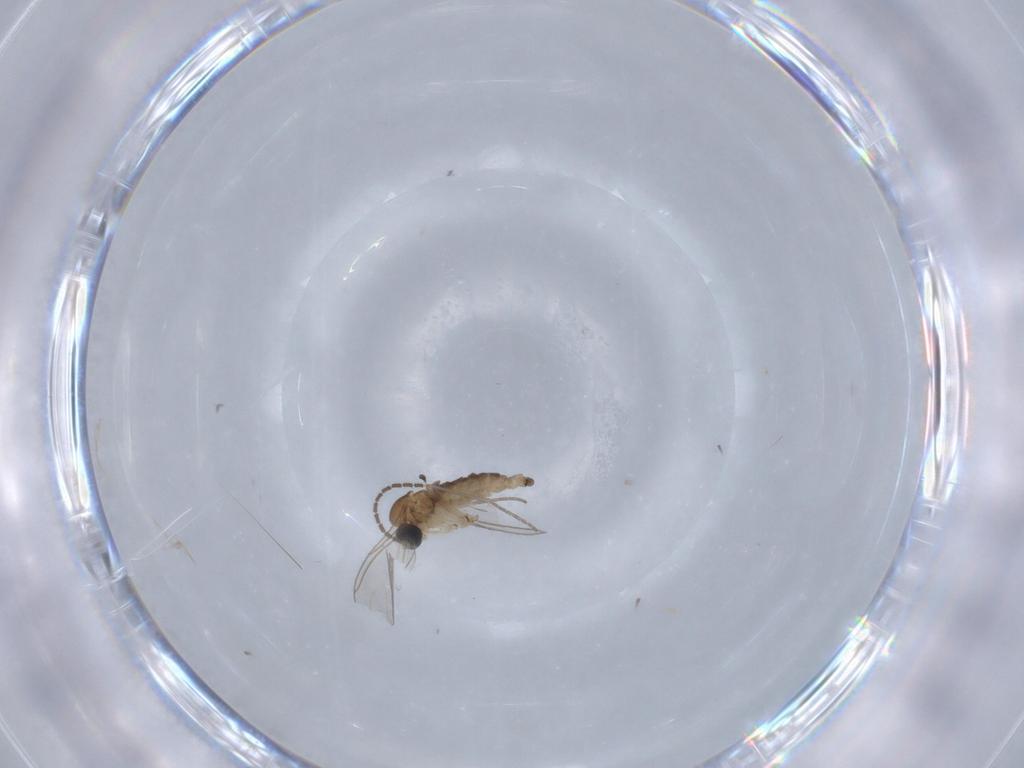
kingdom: Animalia
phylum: Arthropoda
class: Insecta
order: Diptera
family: Sciaridae
